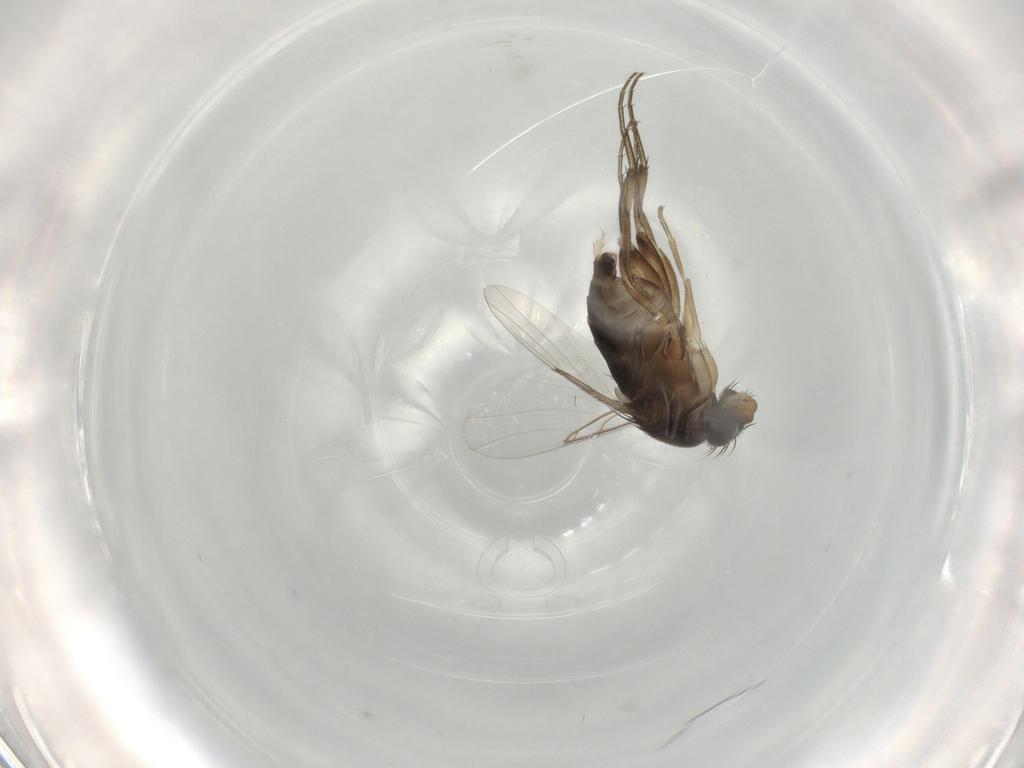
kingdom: Animalia
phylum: Arthropoda
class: Insecta
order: Diptera
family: Phoridae
